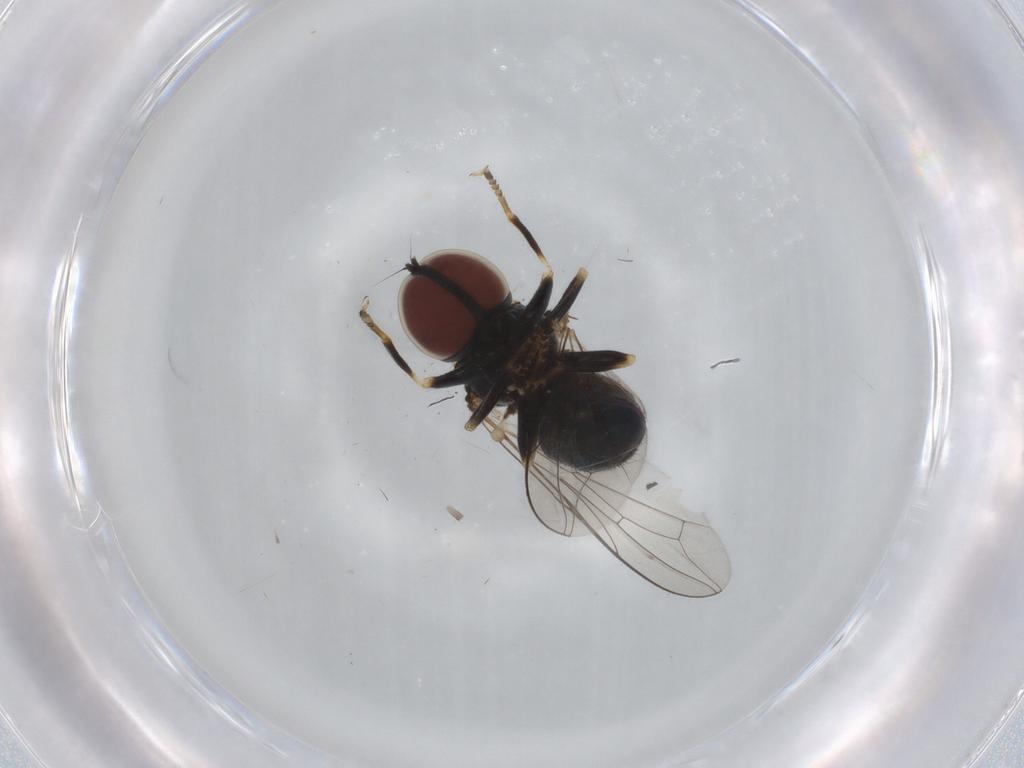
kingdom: Animalia
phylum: Arthropoda
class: Insecta
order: Diptera
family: Pipunculidae
